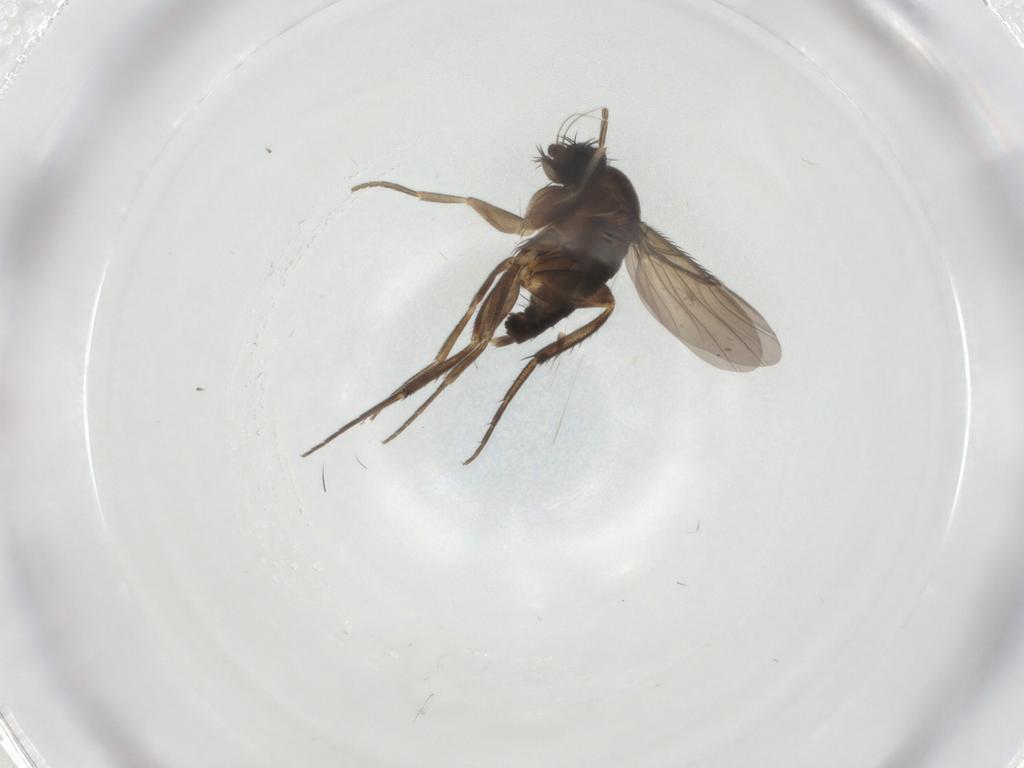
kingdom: Animalia
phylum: Arthropoda
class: Insecta
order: Diptera
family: Phoridae
